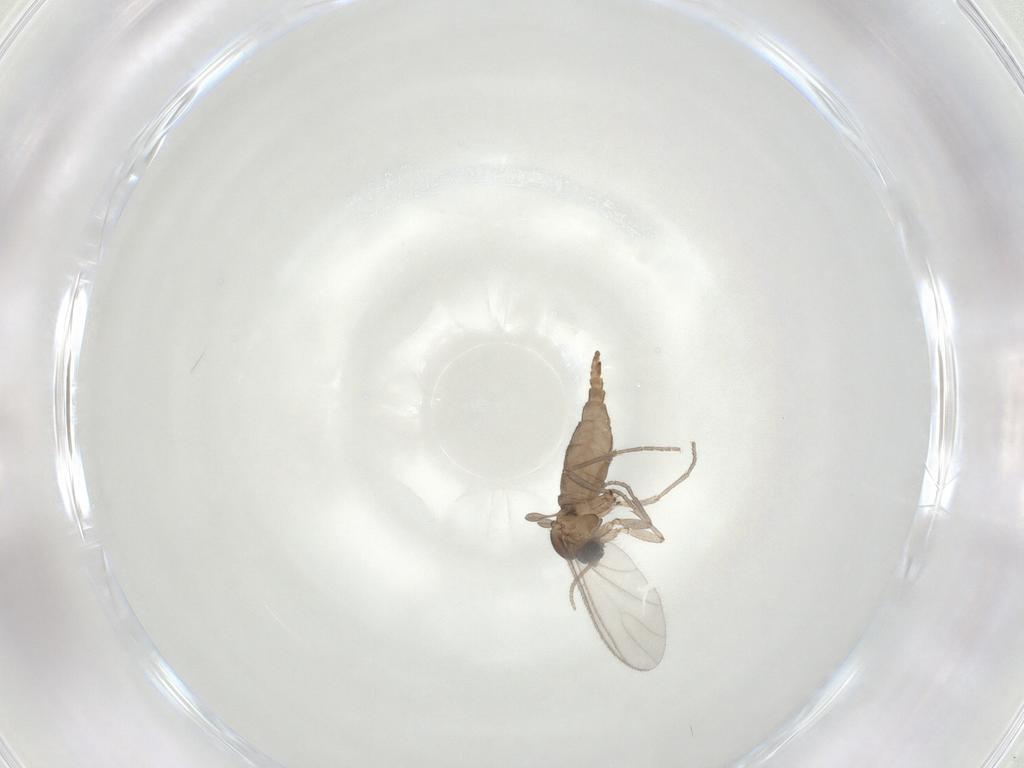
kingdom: Animalia
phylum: Arthropoda
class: Insecta
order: Diptera
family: Sciaridae
